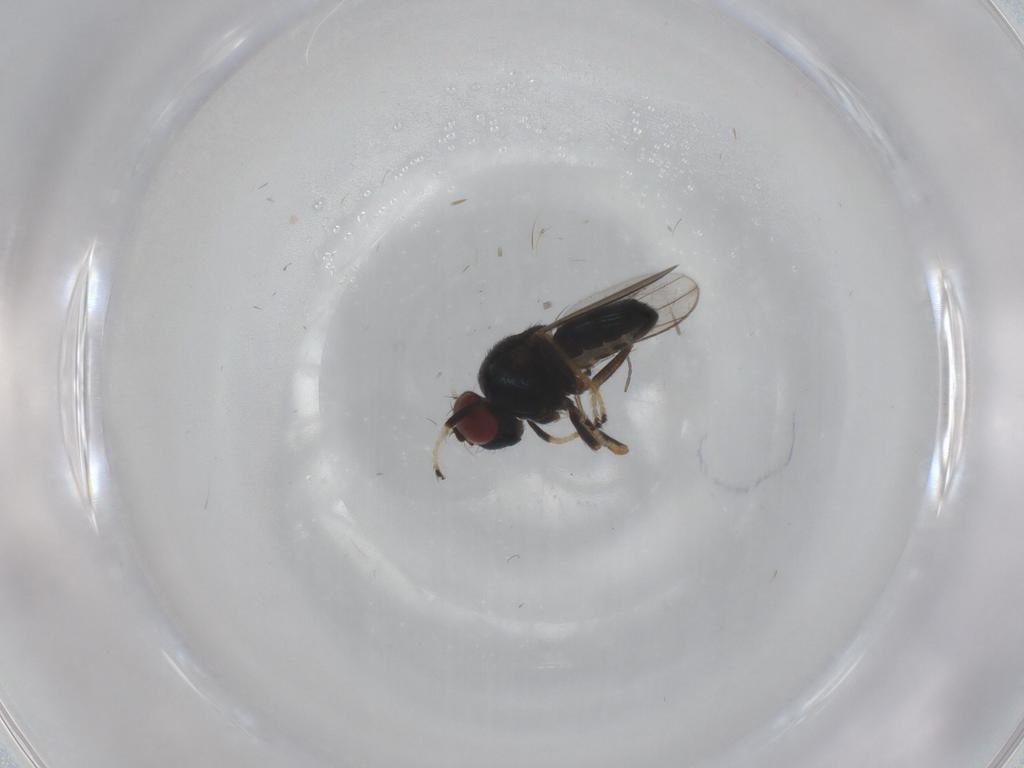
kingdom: Animalia
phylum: Arthropoda
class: Insecta
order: Diptera
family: Ephydridae
